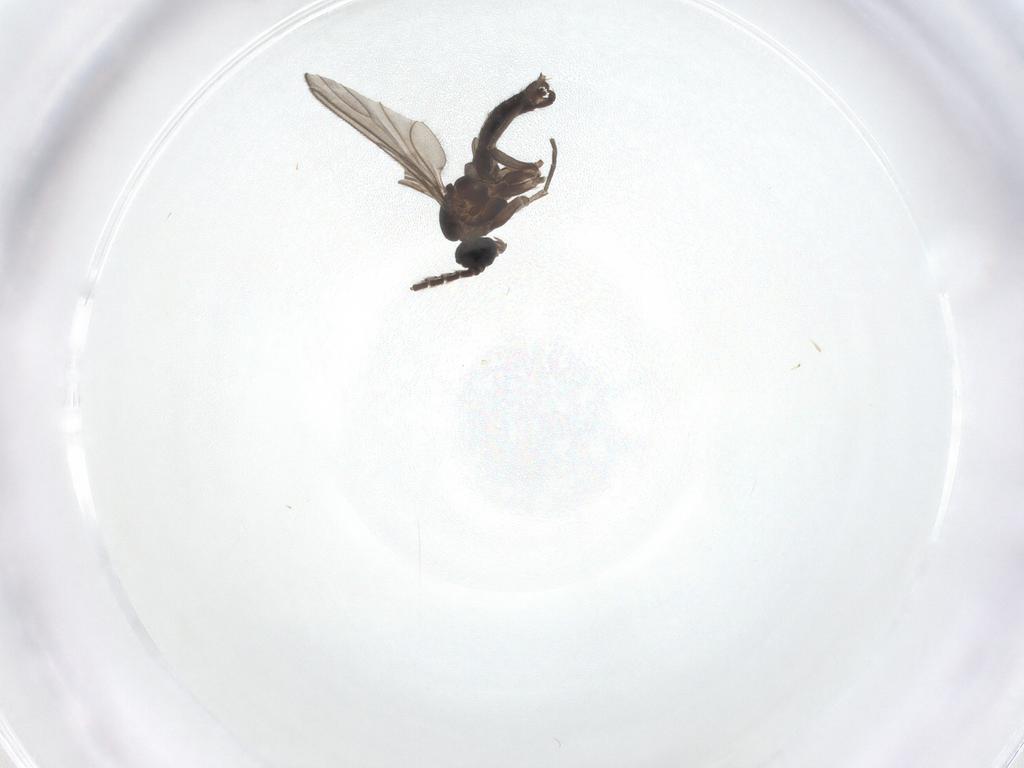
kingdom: Animalia
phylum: Arthropoda
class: Insecta
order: Diptera
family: Sciaridae
